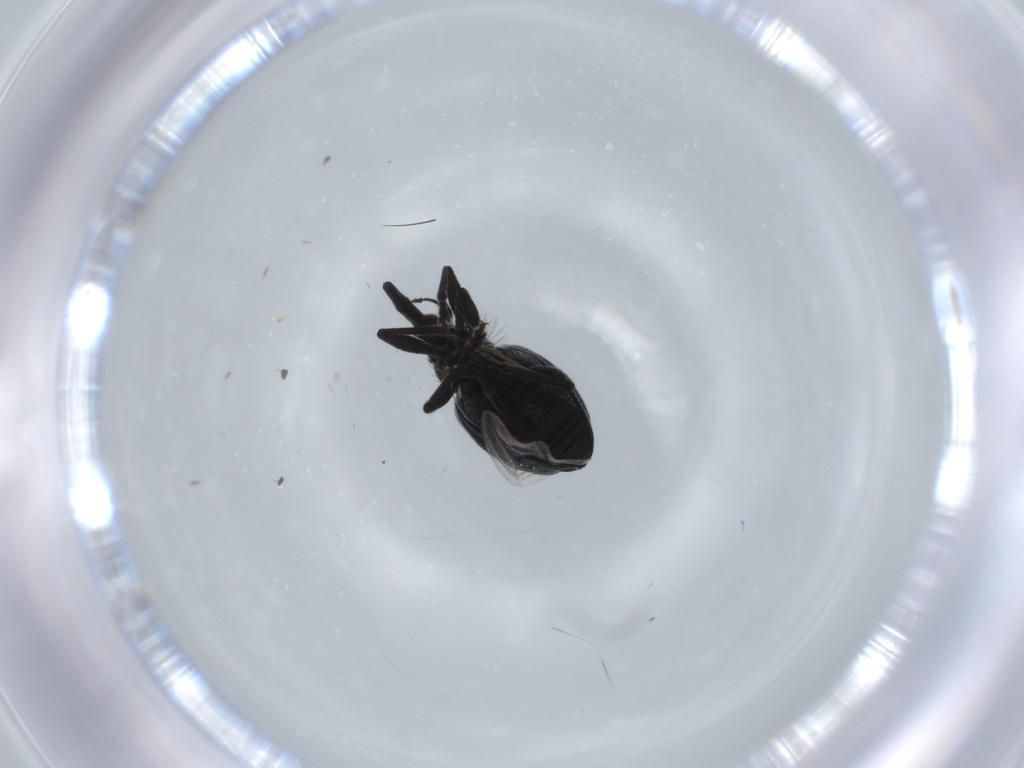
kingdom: Animalia
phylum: Arthropoda
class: Insecta
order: Coleoptera
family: Brentidae
